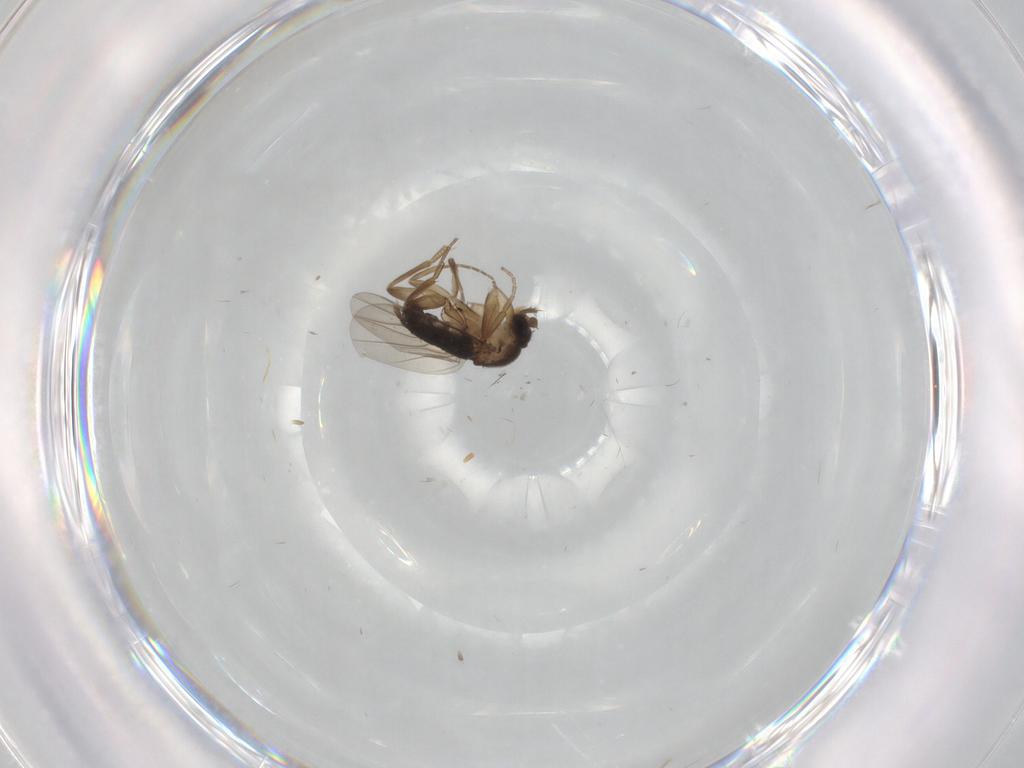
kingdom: Animalia
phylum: Arthropoda
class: Insecta
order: Diptera
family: Phoridae
